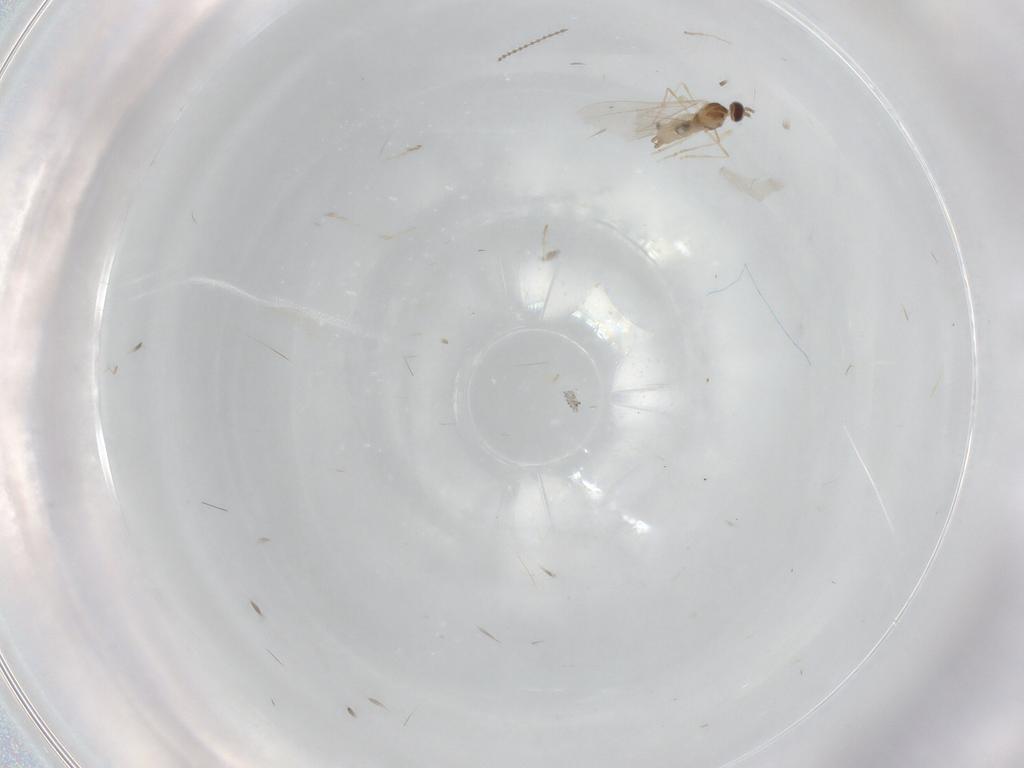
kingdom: Animalia
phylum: Arthropoda
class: Insecta
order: Diptera
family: Cecidomyiidae
